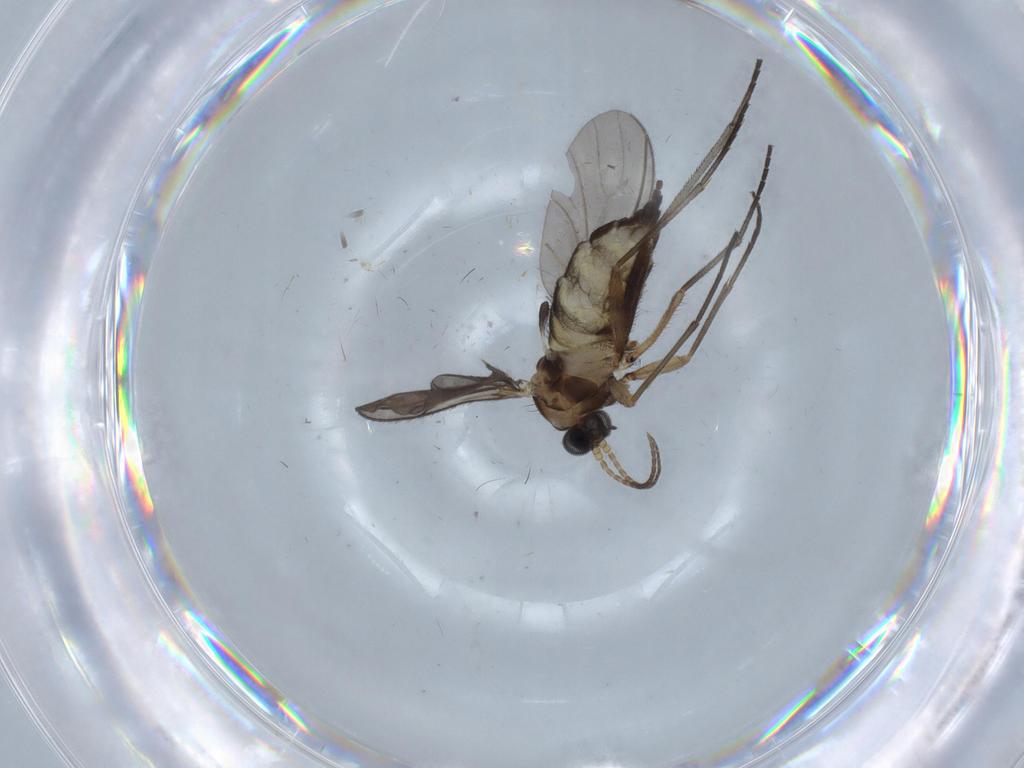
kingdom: Animalia
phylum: Arthropoda
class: Insecta
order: Diptera
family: Sciaridae
